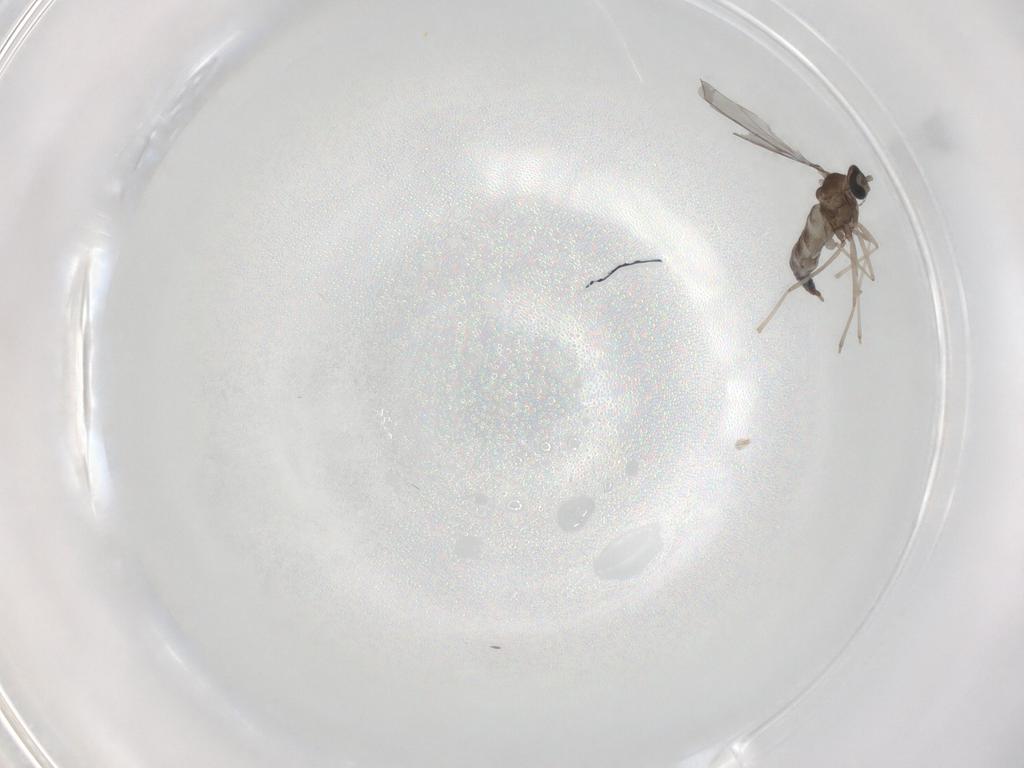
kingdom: Animalia
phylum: Arthropoda
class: Insecta
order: Diptera
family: Cecidomyiidae
